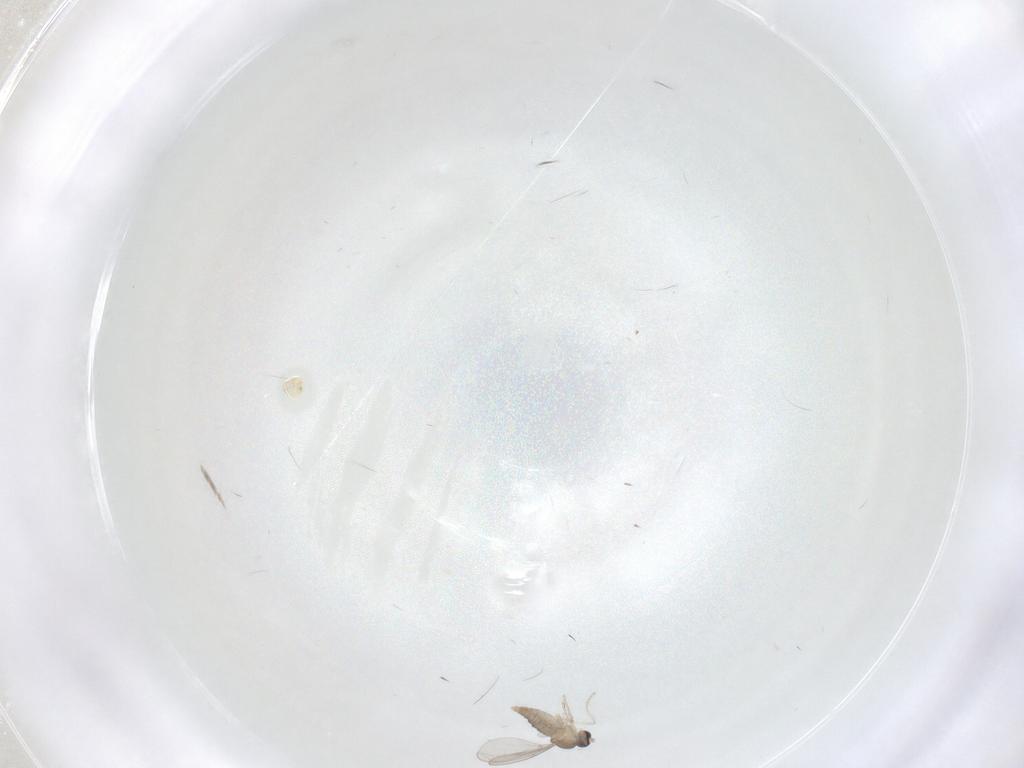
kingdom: Animalia
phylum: Arthropoda
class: Insecta
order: Diptera
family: Cecidomyiidae
